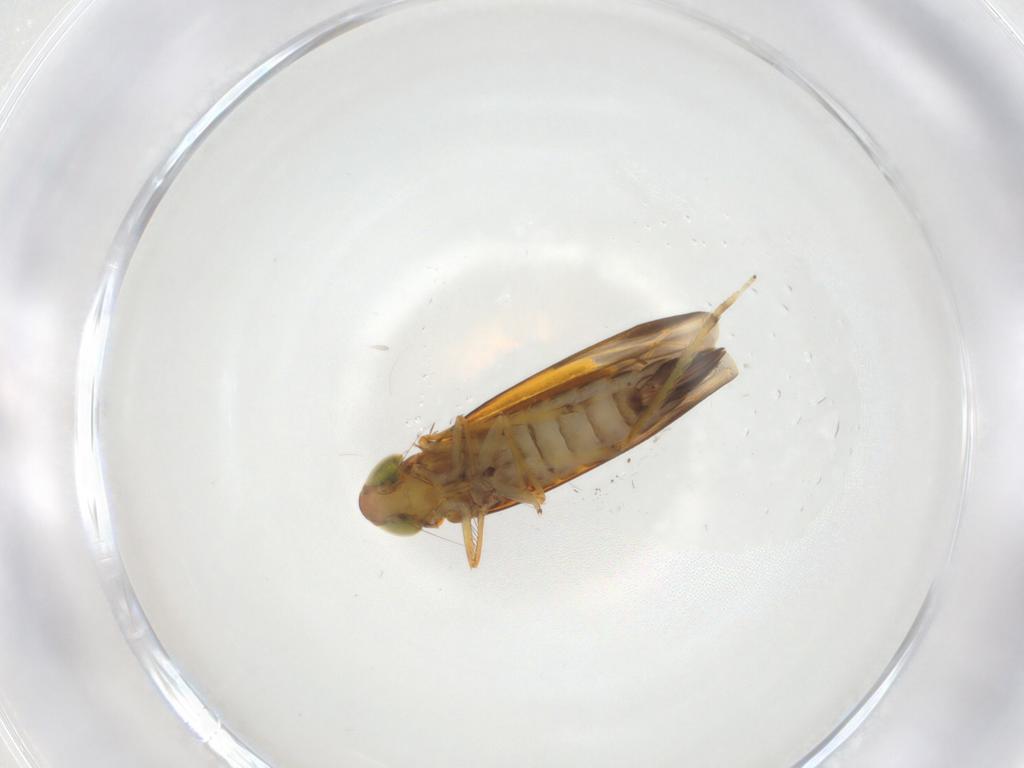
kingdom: Animalia
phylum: Arthropoda
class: Insecta
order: Hemiptera
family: Cicadellidae
